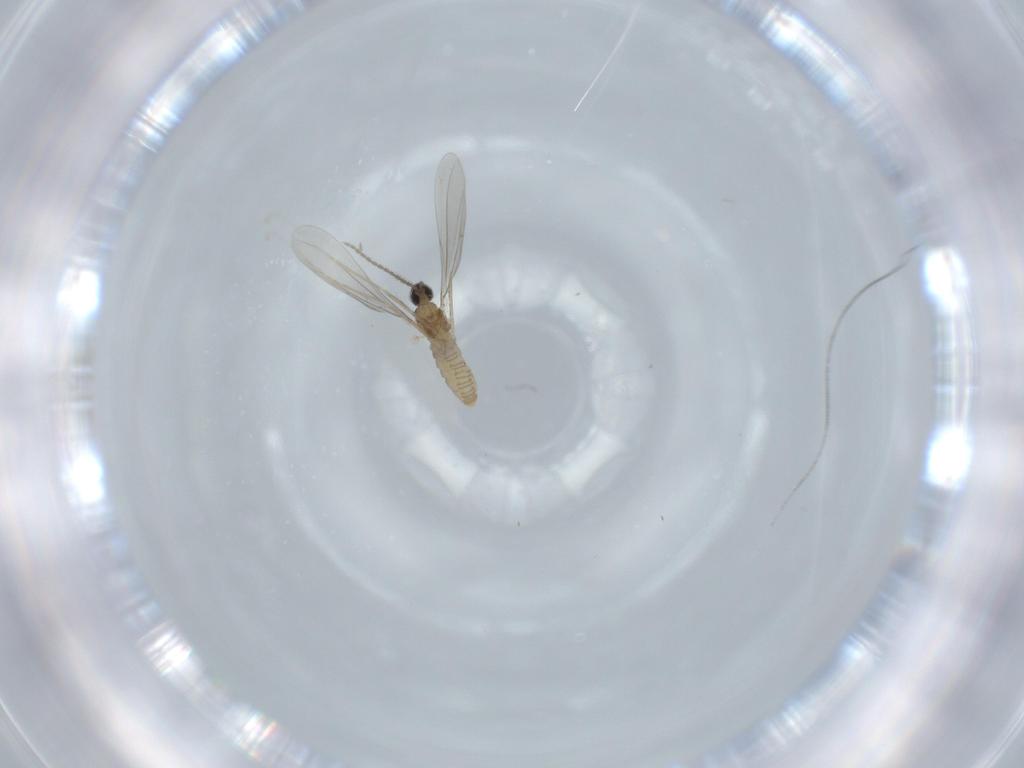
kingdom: Animalia
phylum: Arthropoda
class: Insecta
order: Diptera
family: Cecidomyiidae
